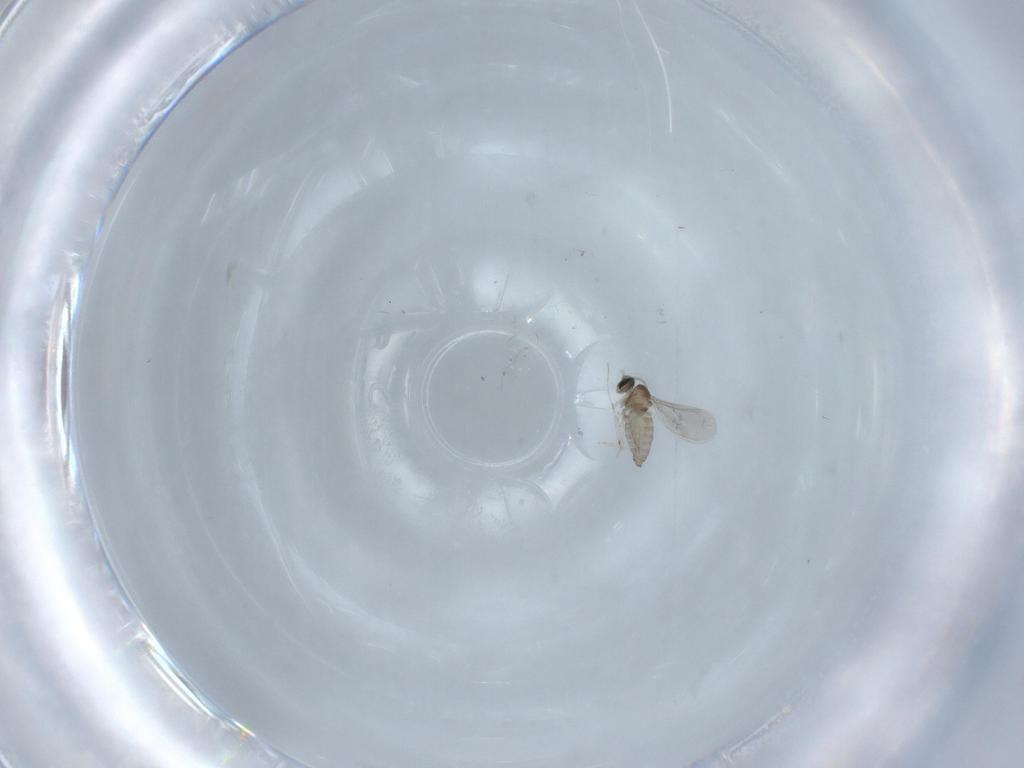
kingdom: Animalia
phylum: Arthropoda
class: Insecta
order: Diptera
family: Chironomidae
